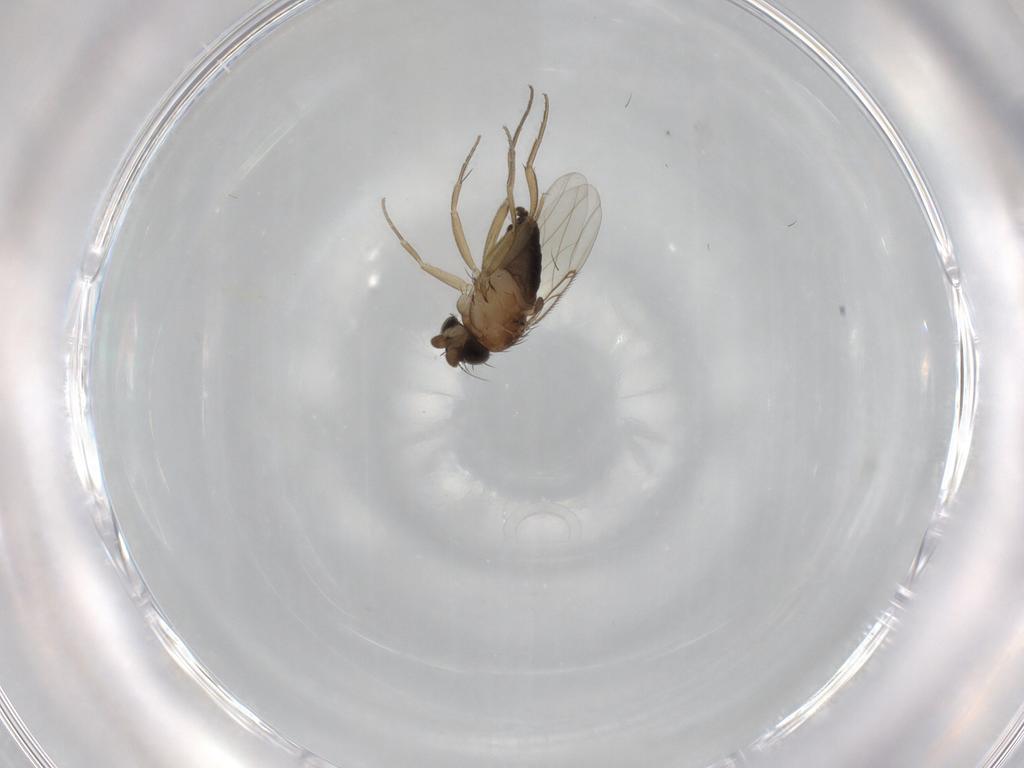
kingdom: Animalia
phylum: Arthropoda
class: Insecta
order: Diptera
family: Phoridae
